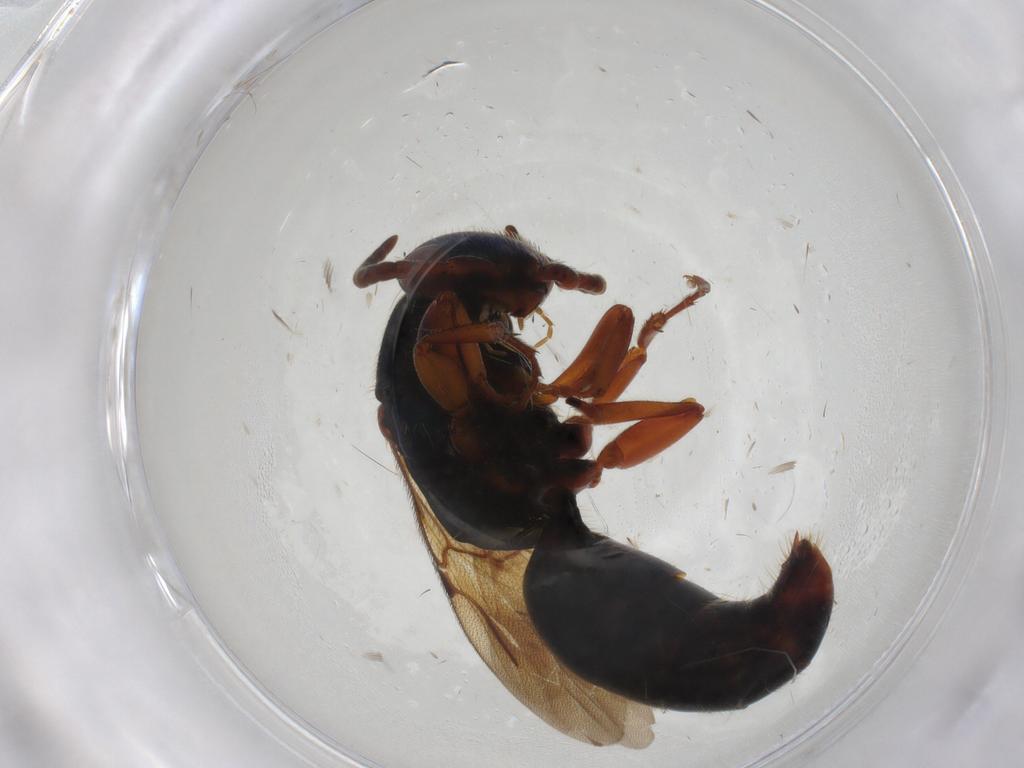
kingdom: Animalia
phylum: Arthropoda
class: Insecta
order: Hymenoptera
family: Bethylidae
